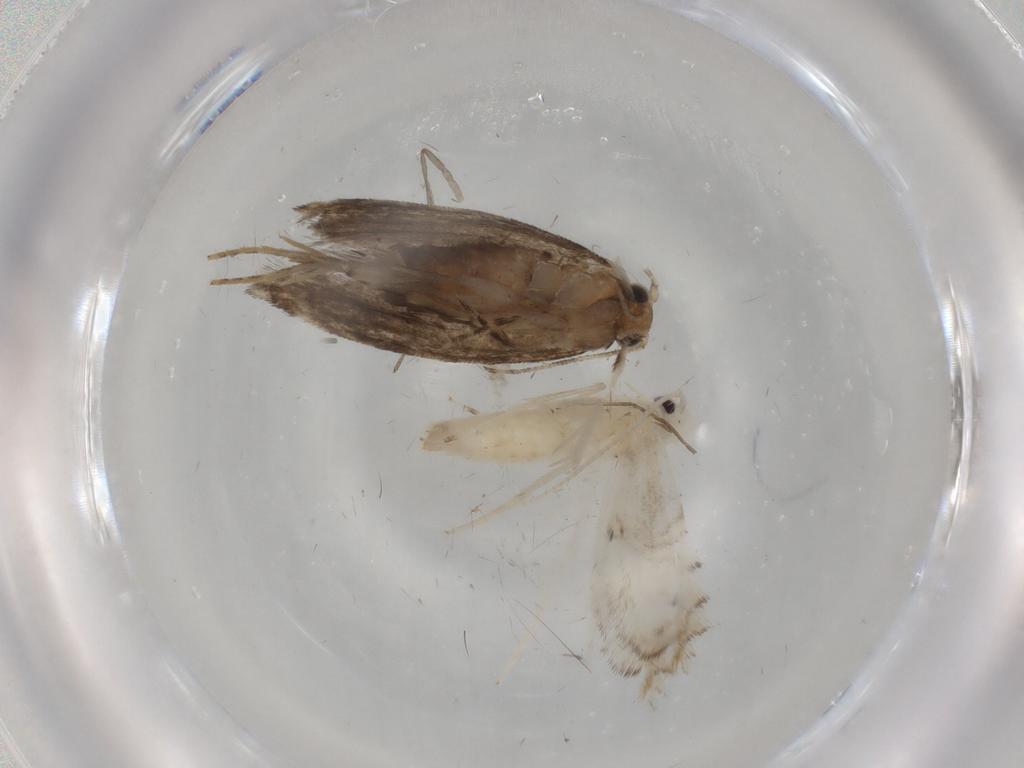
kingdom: Animalia
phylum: Arthropoda
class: Insecta
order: Lepidoptera
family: Tineidae
